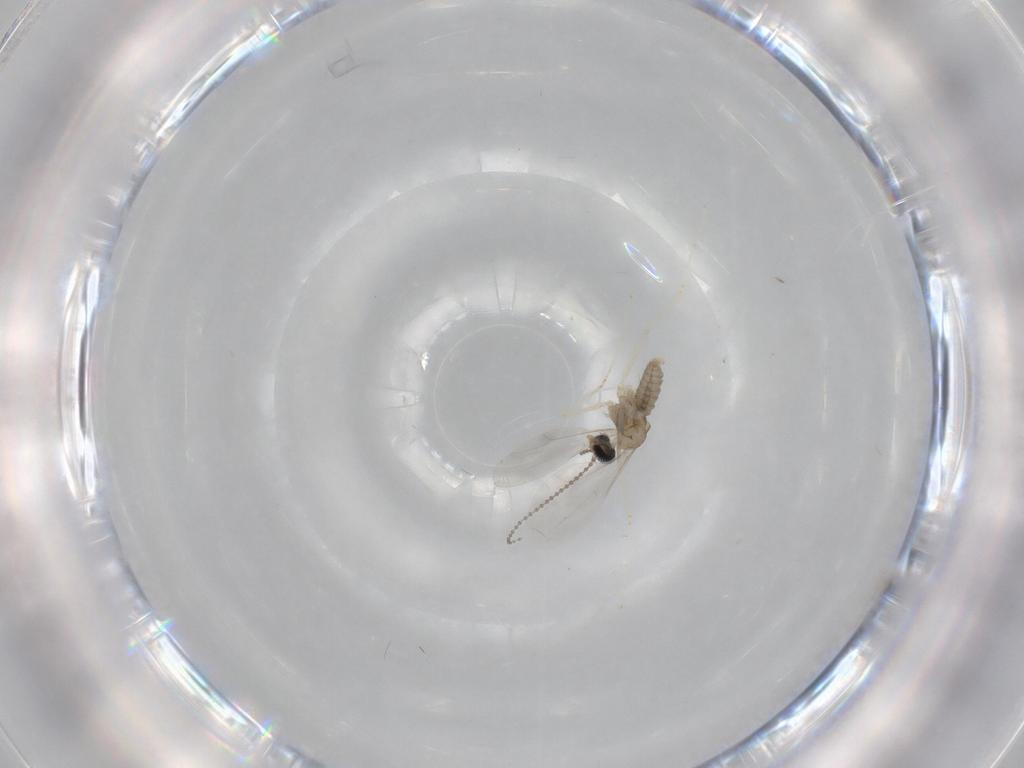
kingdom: Animalia
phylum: Arthropoda
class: Insecta
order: Diptera
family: Cecidomyiidae
